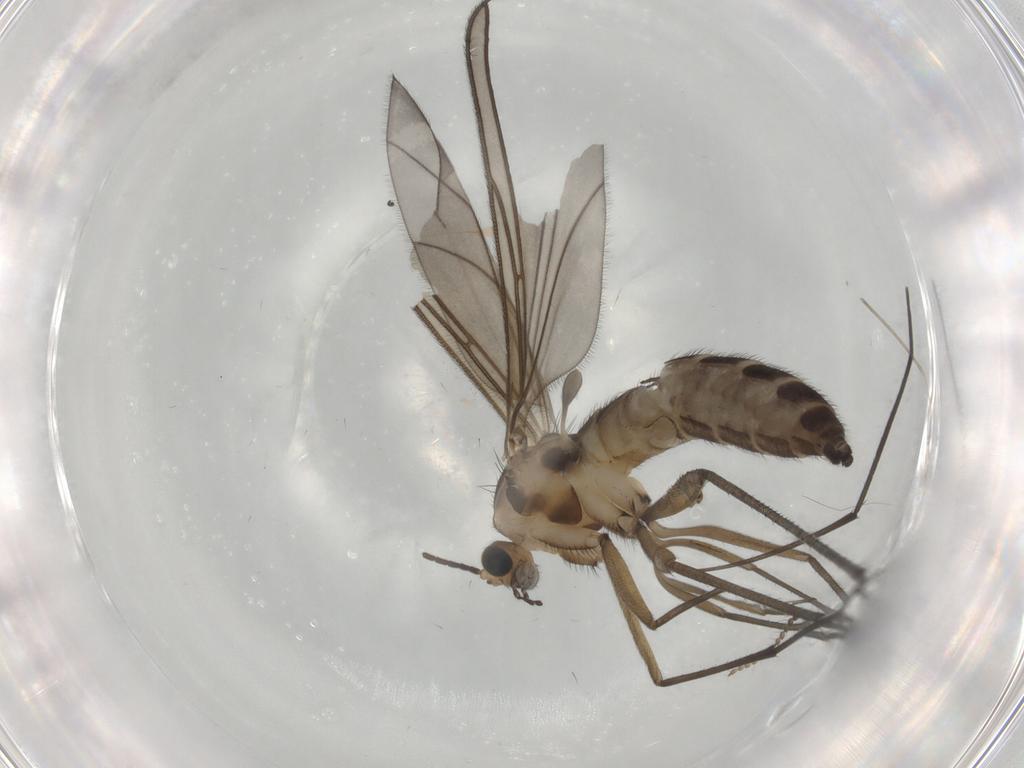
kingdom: Animalia
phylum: Arthropoda
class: Insecta
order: Diptera
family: Sciaridae
